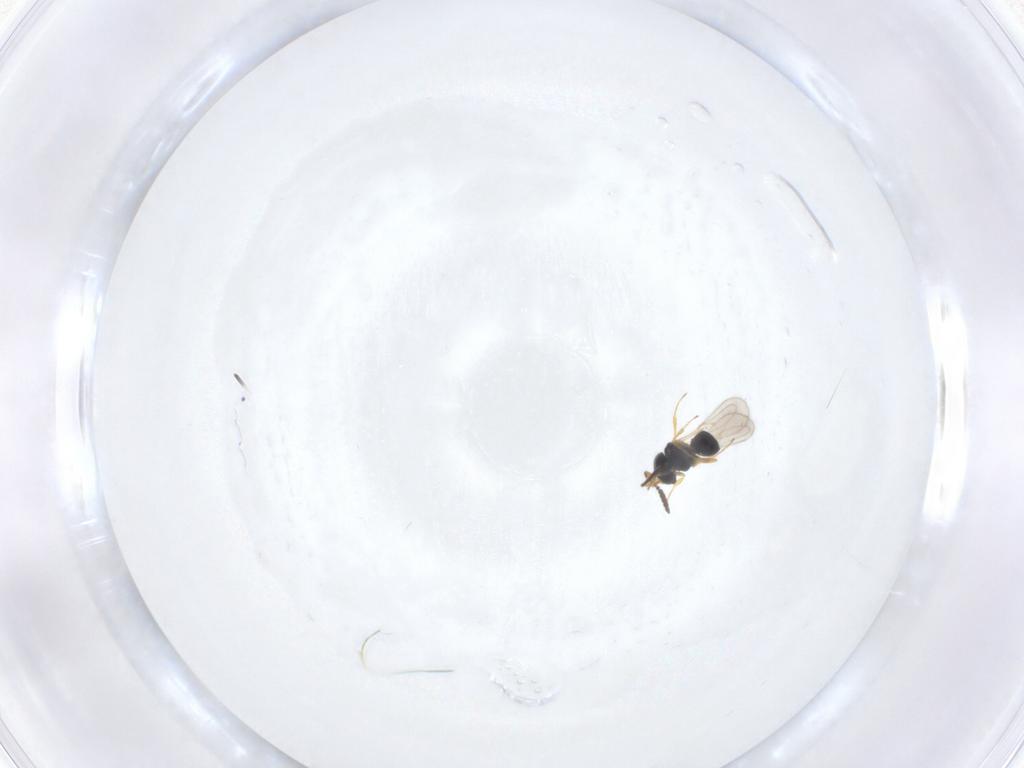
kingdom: Animalia
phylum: Arthropoda
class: Insecta
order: Hymenoptera
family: Scelionidae
